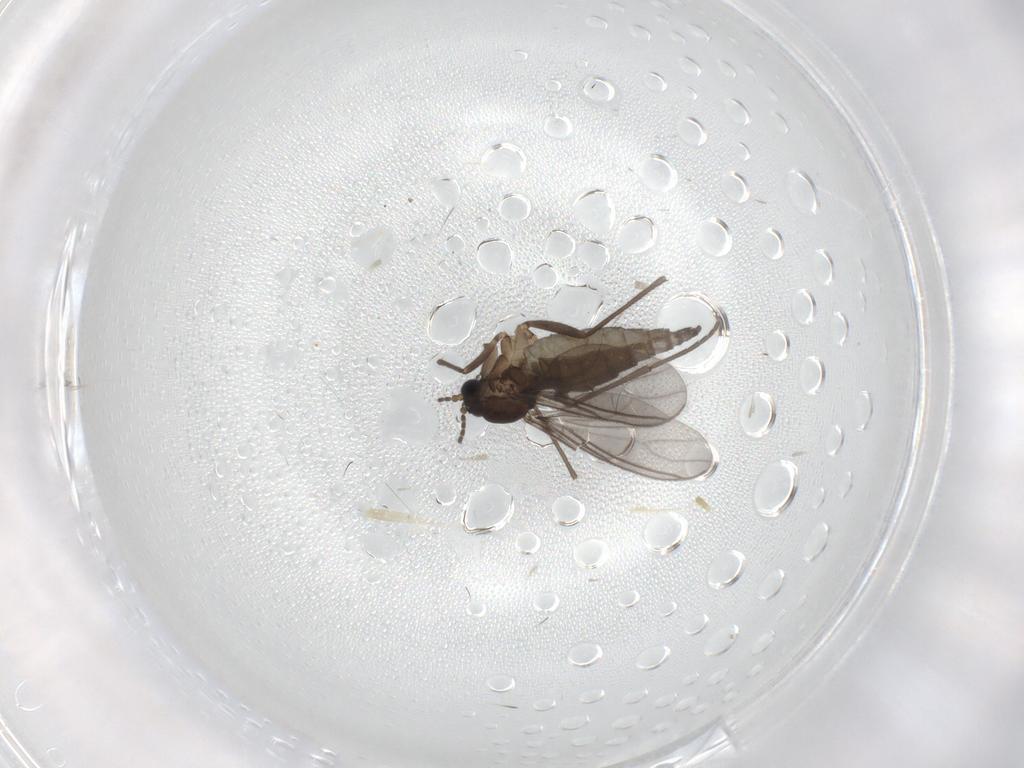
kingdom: Animalia
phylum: Arthropoda
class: Insecta
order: Diptera
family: Sciaridae
